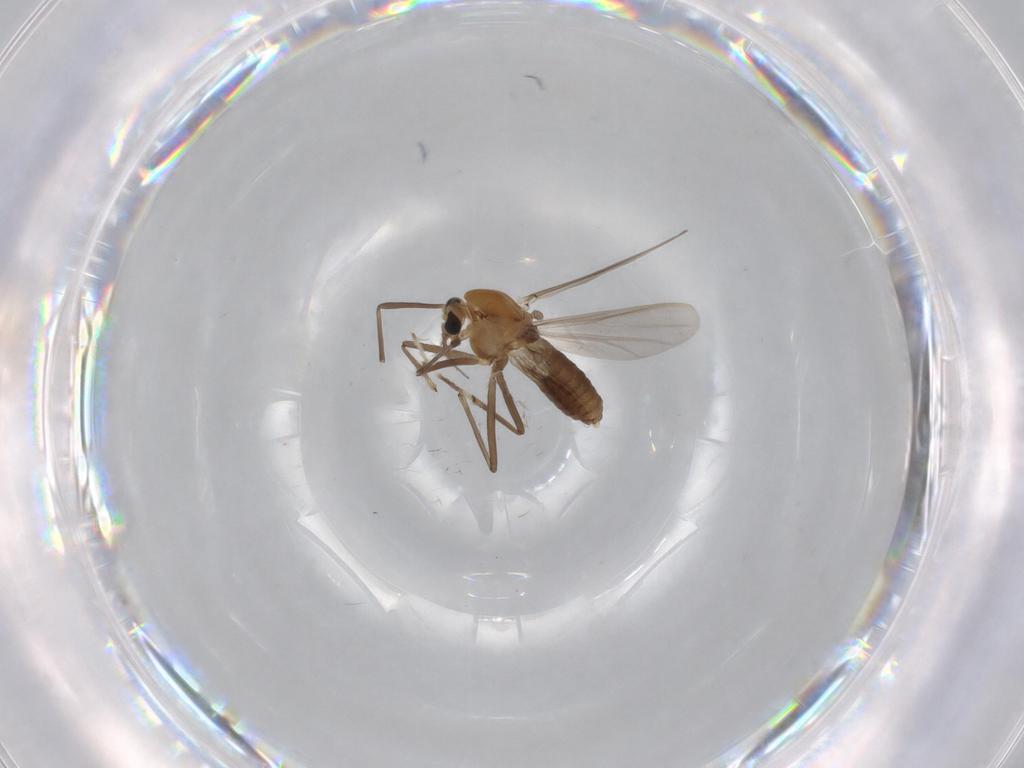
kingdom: Animalia
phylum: Arthropoda
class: Insecta
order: Diptera
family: Chironomidae
